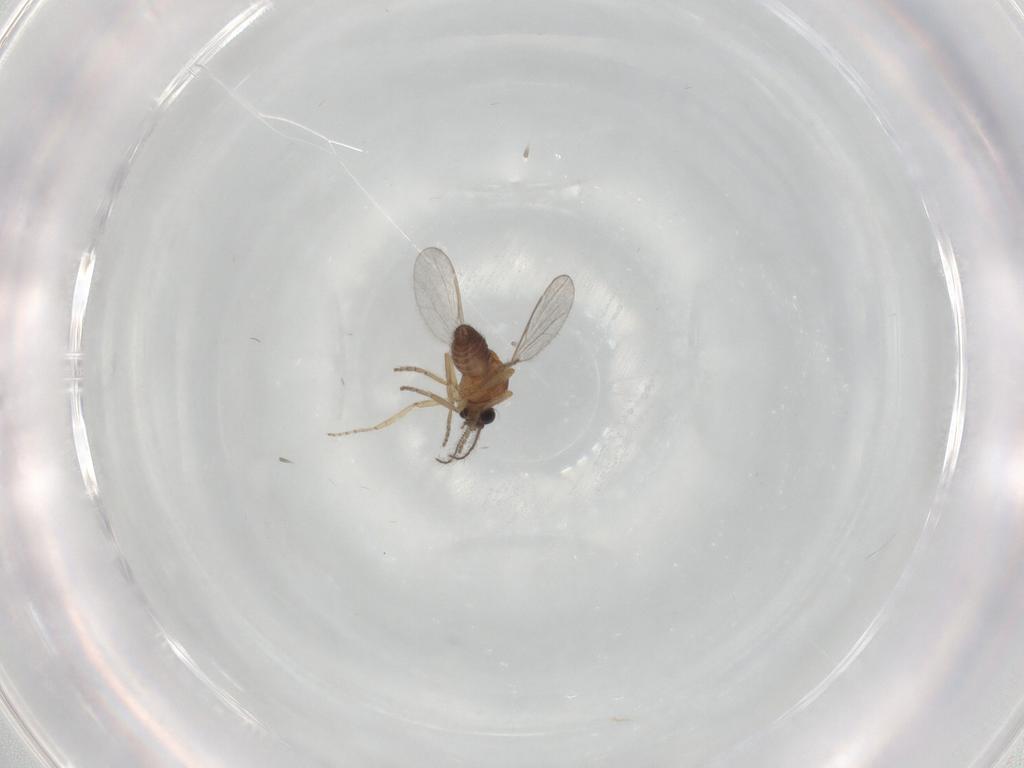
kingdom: Animalia
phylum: Arthropoda
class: Insecta
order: Diptera
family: Ceratopogonidae
